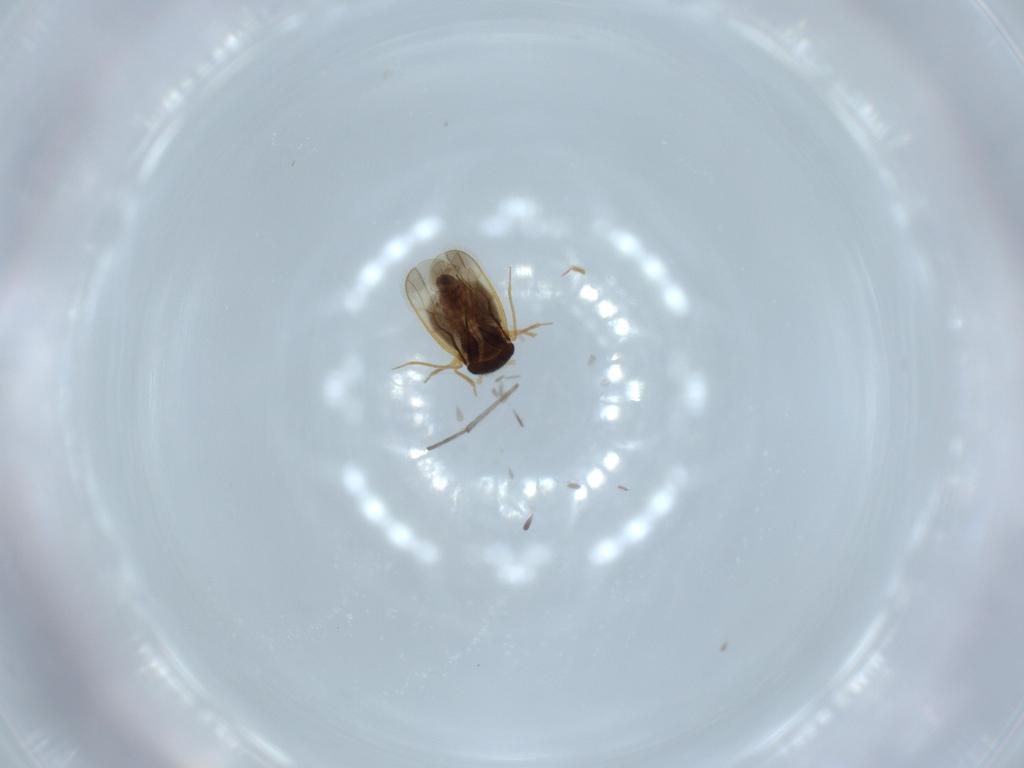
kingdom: Animalia
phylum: Arthropoda
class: Insecta
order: Hemiptera
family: Schizopteridae
